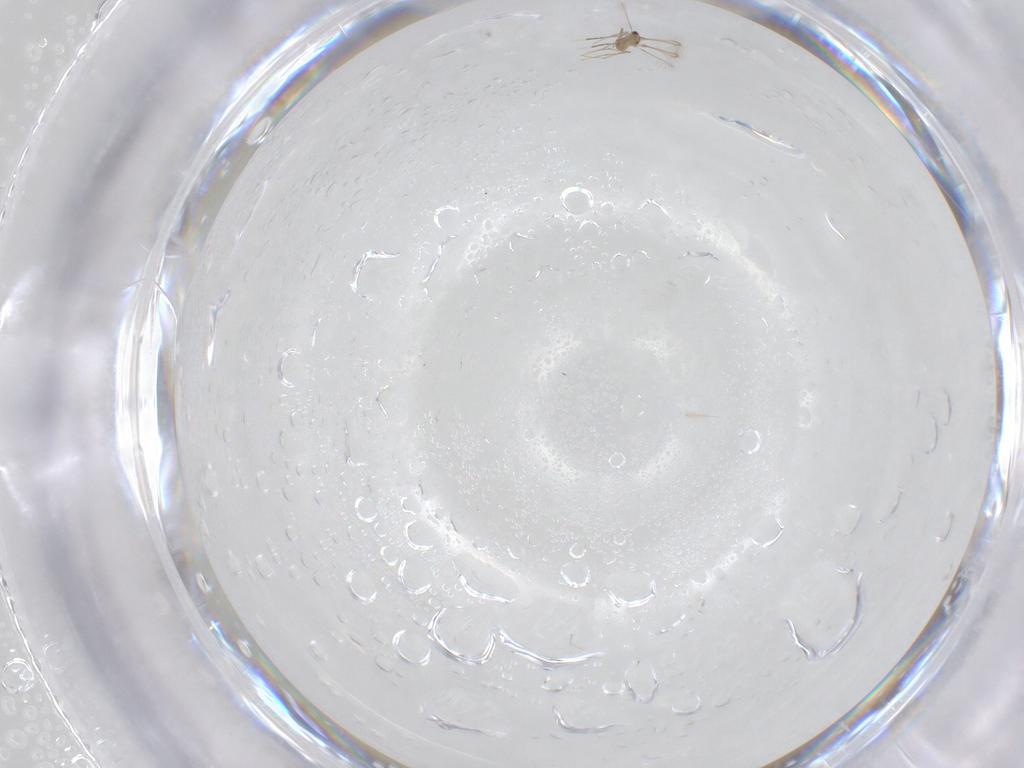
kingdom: Animalia
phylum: Arthropoda
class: Insecta
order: Hymenoptera
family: Mymaridae
